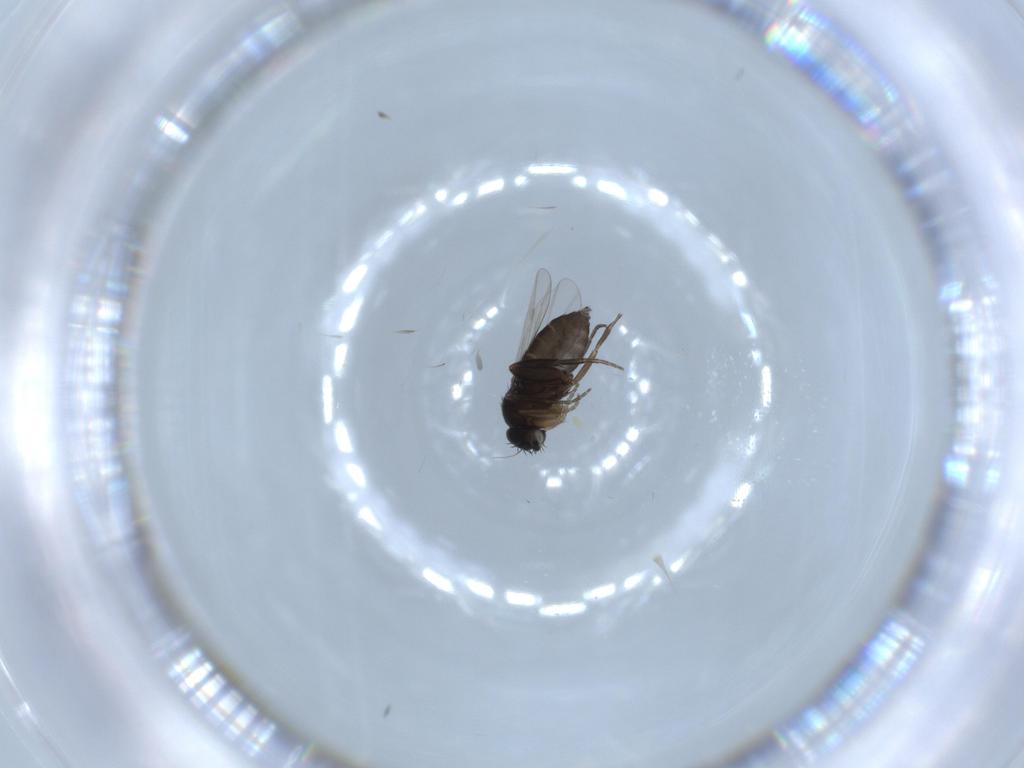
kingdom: Animalia
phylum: Arthropoda
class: Insecta
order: Diptera
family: Phoridae
